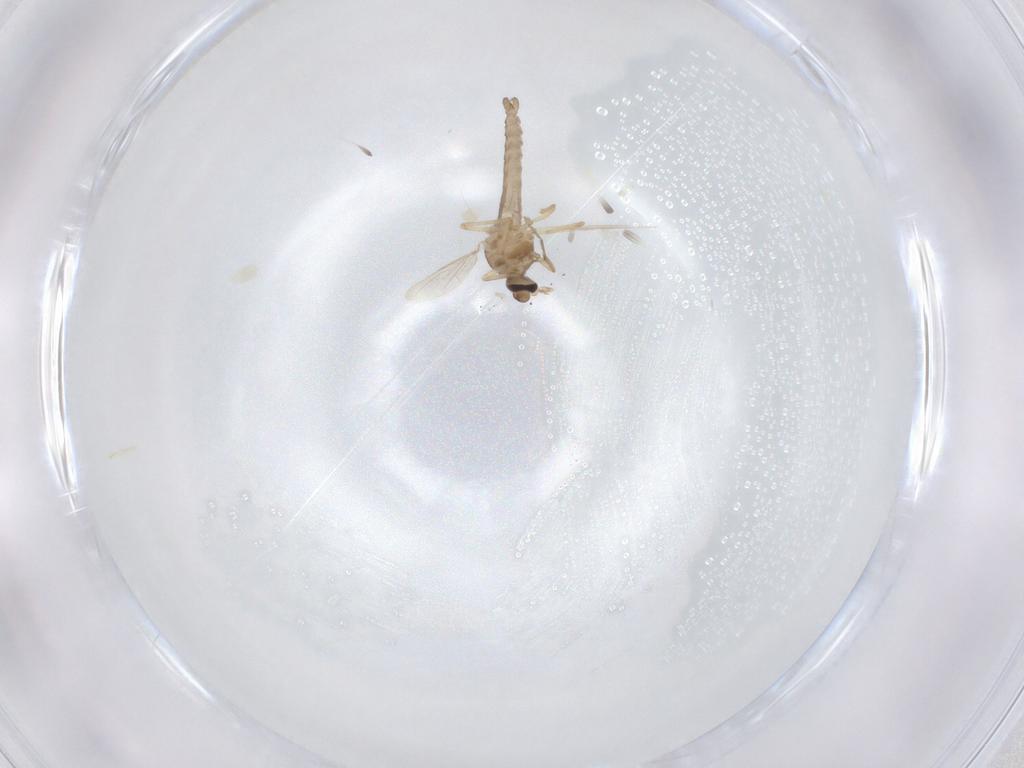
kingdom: Animalia
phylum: Arthropoda
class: Insecta
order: Diptera
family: Ceratopogonidae
